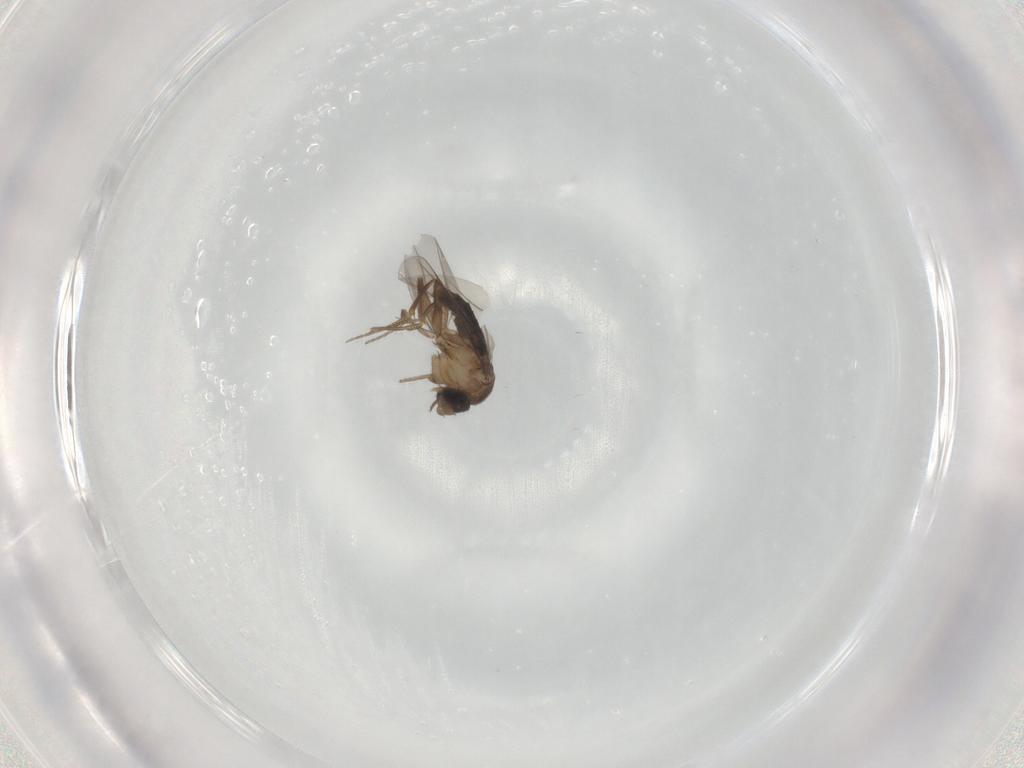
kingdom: Animalia
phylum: Arthropoda
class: Insecta
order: Diptera
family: Phoridae
